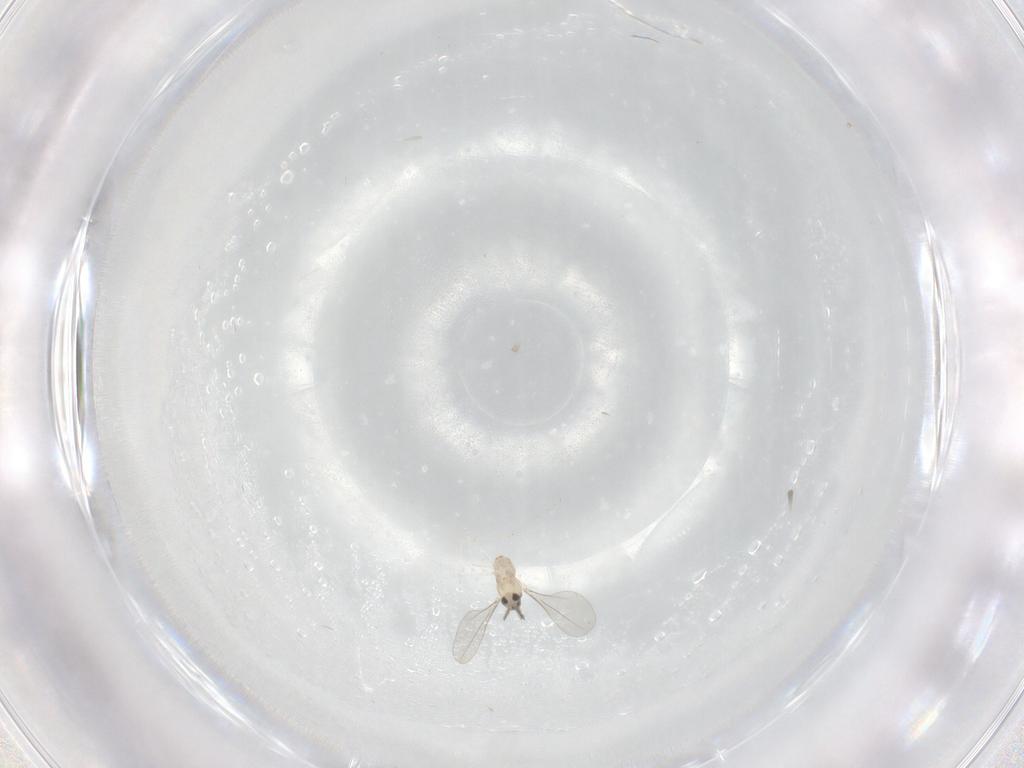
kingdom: Animalia
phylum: Arthropoda
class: Insecta
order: Diptera
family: Cecidomyiidae
